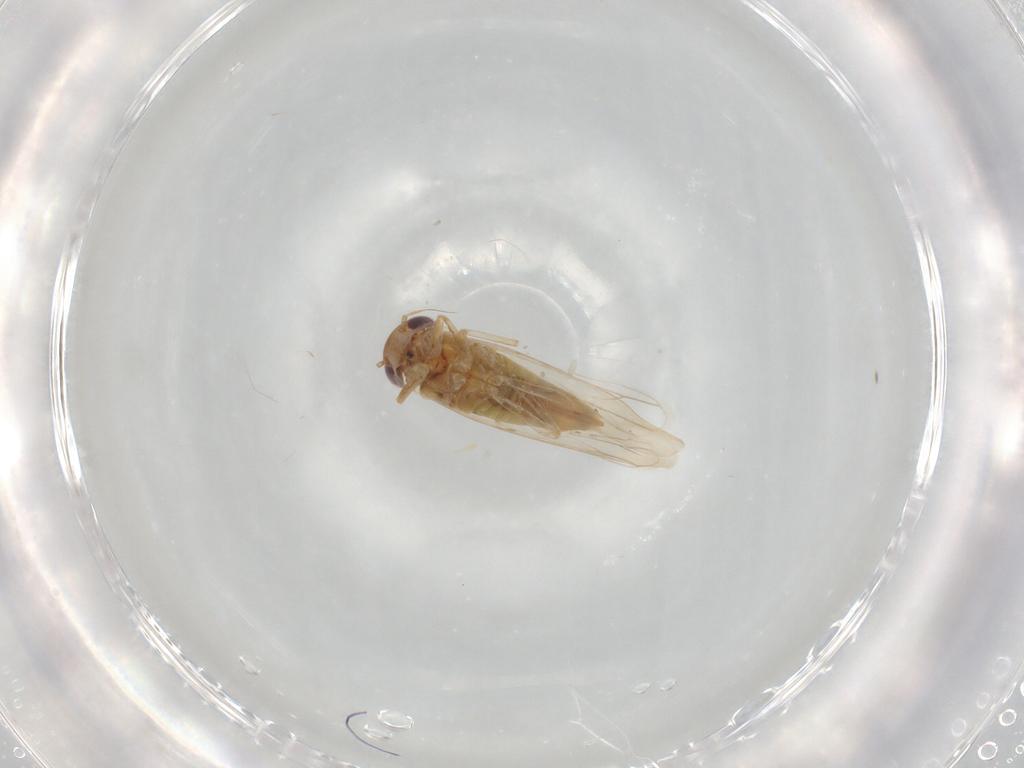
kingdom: Animalia
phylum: Arthropoda
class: Insecta
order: Hemiptera
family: Cicadellidae
